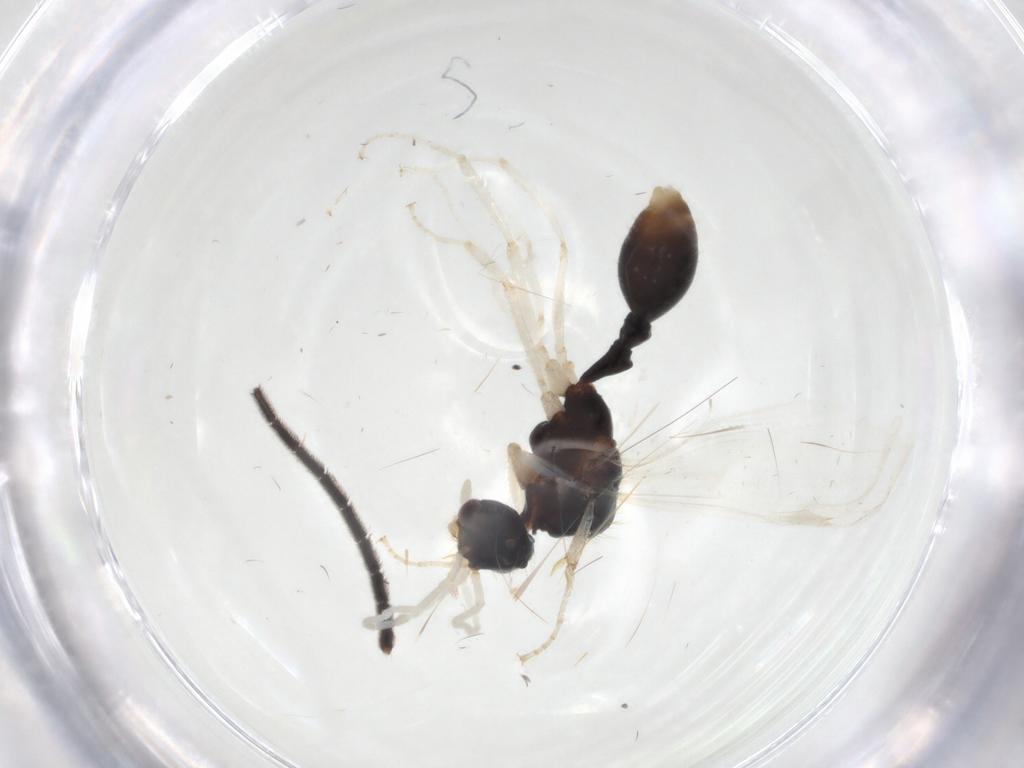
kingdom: Animalia
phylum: Arthropoda
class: Insecta
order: Hymenoptera
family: Formicidae
